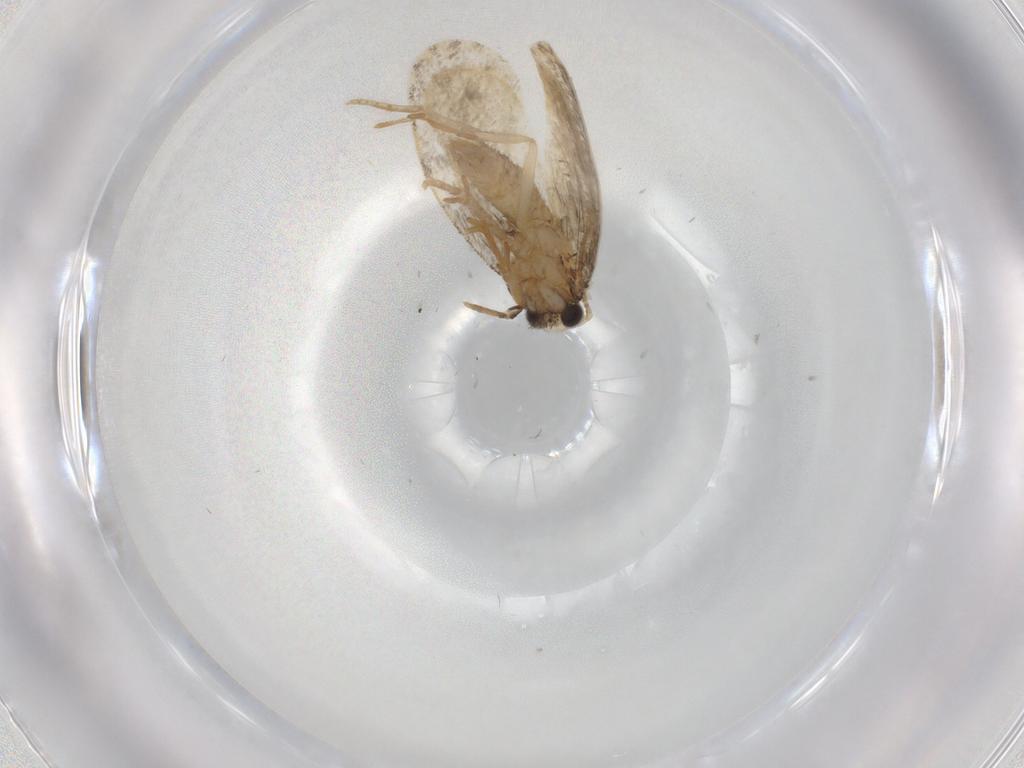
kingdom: Animalia
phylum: Arthropoda
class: Insecta
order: Lepidoptera
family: Psychidae
